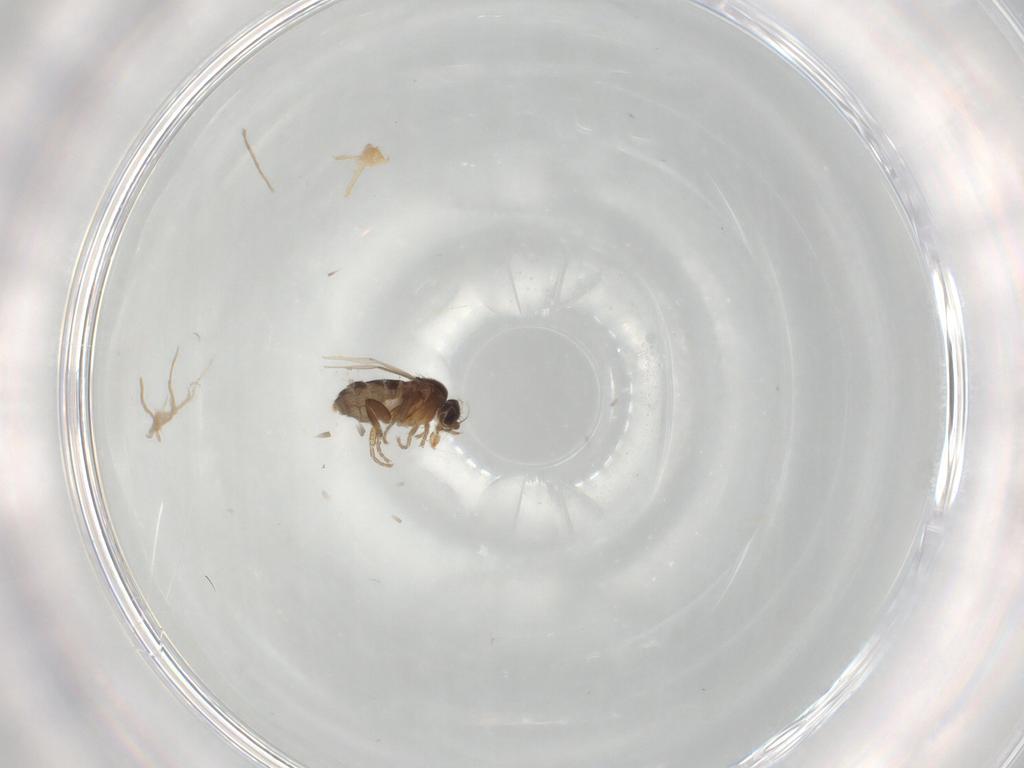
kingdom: Animalia
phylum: Arthropoda
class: Insecta
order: Diptera
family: Phoridae
